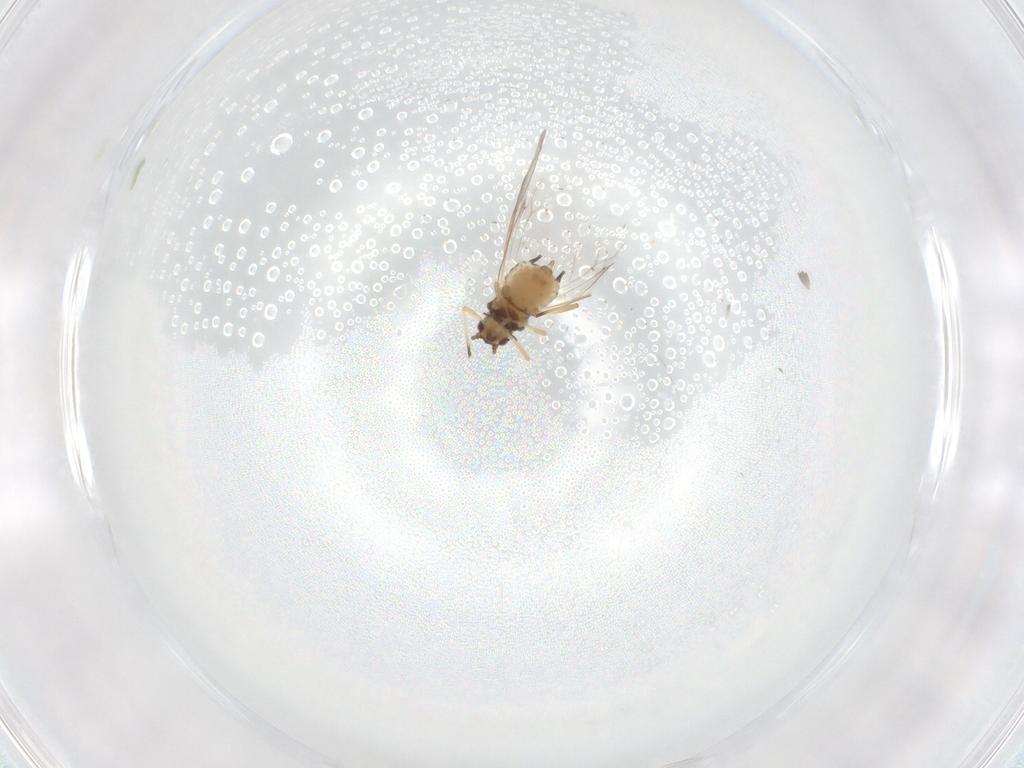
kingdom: Animalia
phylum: Arthropoda
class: Insecta
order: Hemiptera
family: Aphididae
